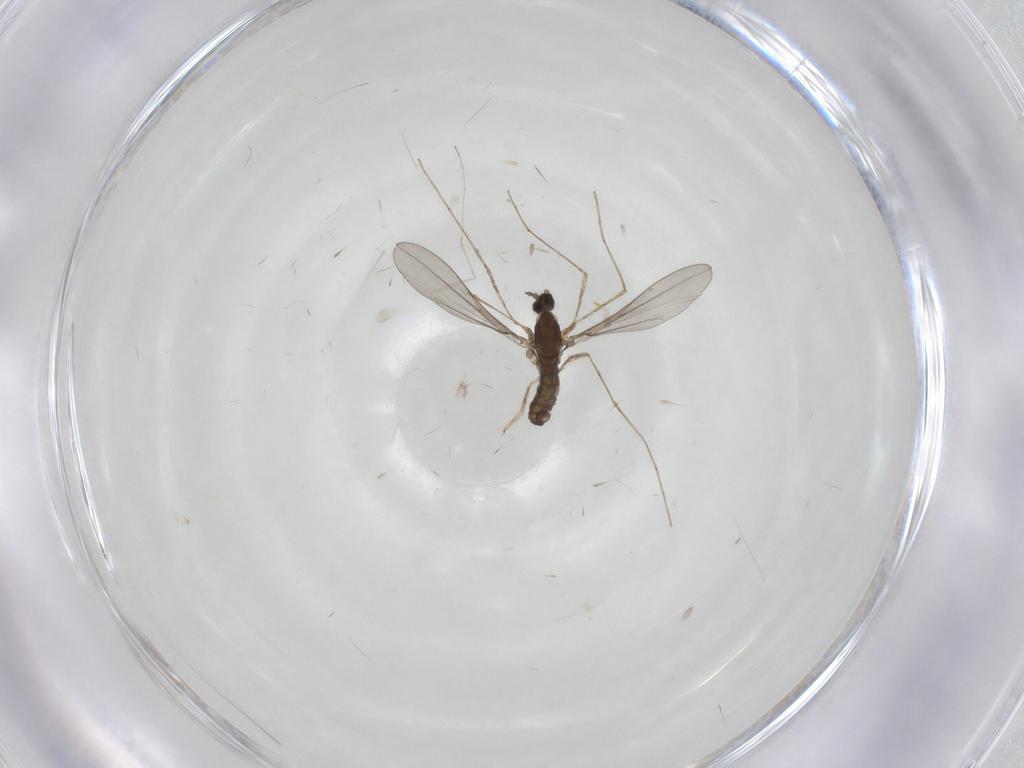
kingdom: Animalia
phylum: Arthropoda
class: Insecta
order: Diptera
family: Cecidomyiidae
